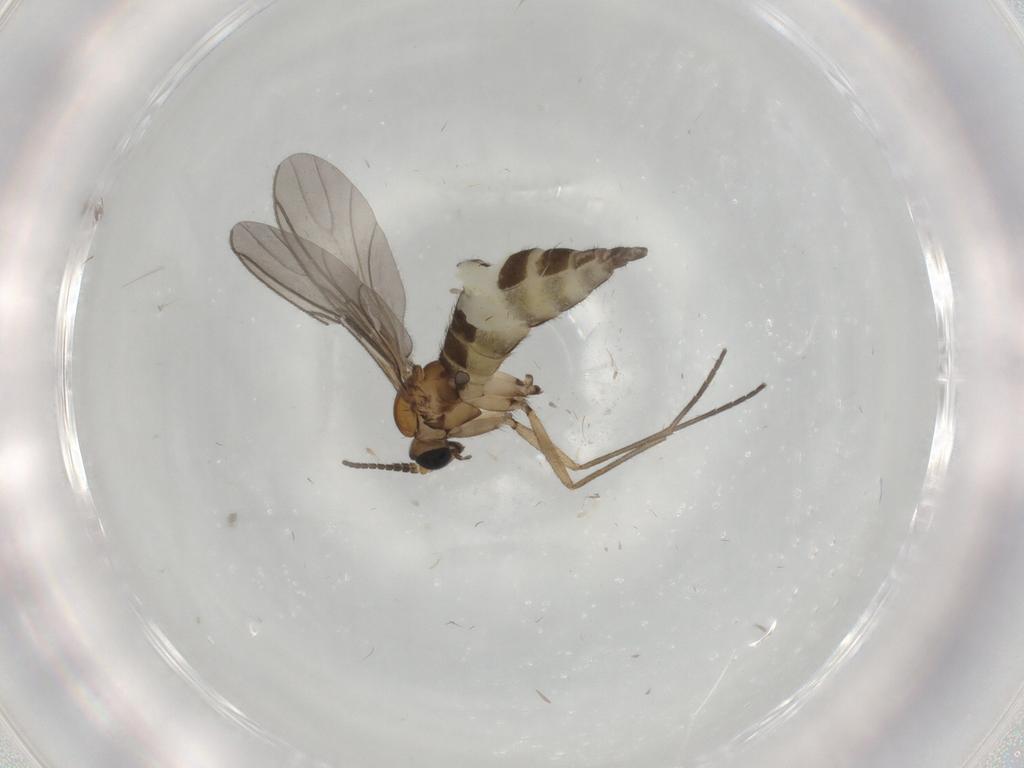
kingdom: Animalia
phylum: Arthropoda
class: Insecta
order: Diptera
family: Sciaridae
